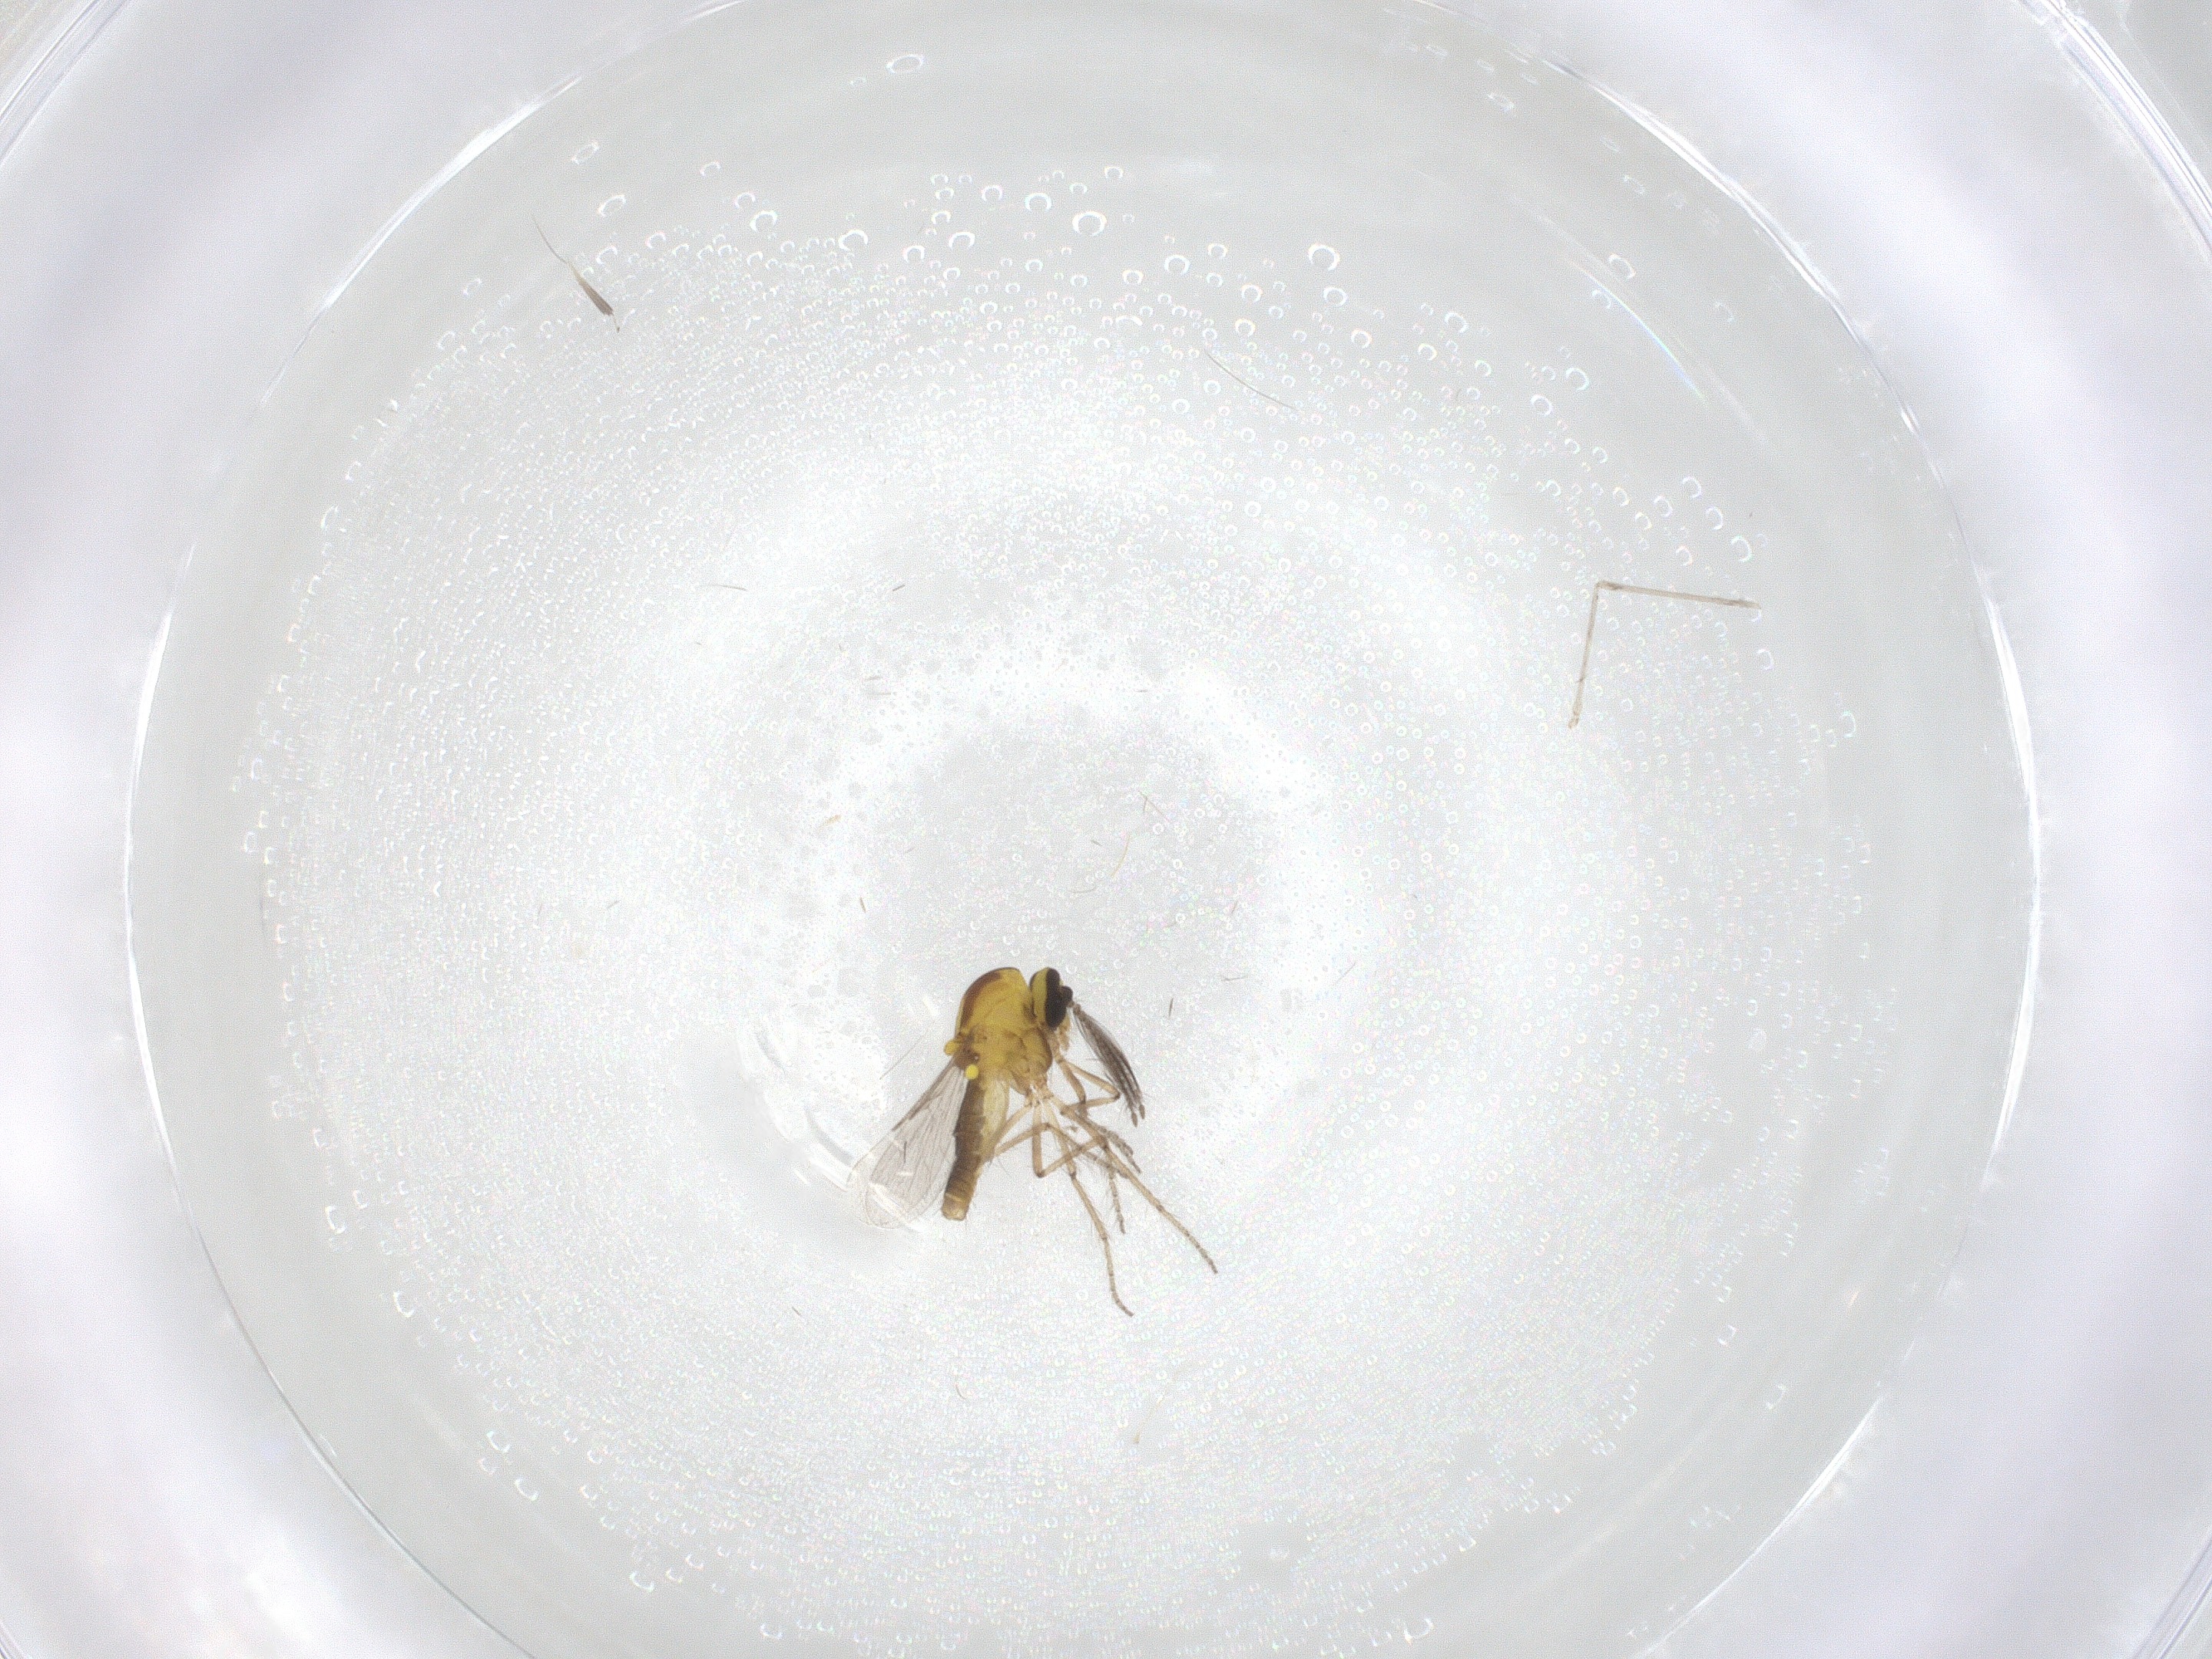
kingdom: Animalia
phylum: Arthropoda
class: Insecta
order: Diptera
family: Ceratopogonidae
